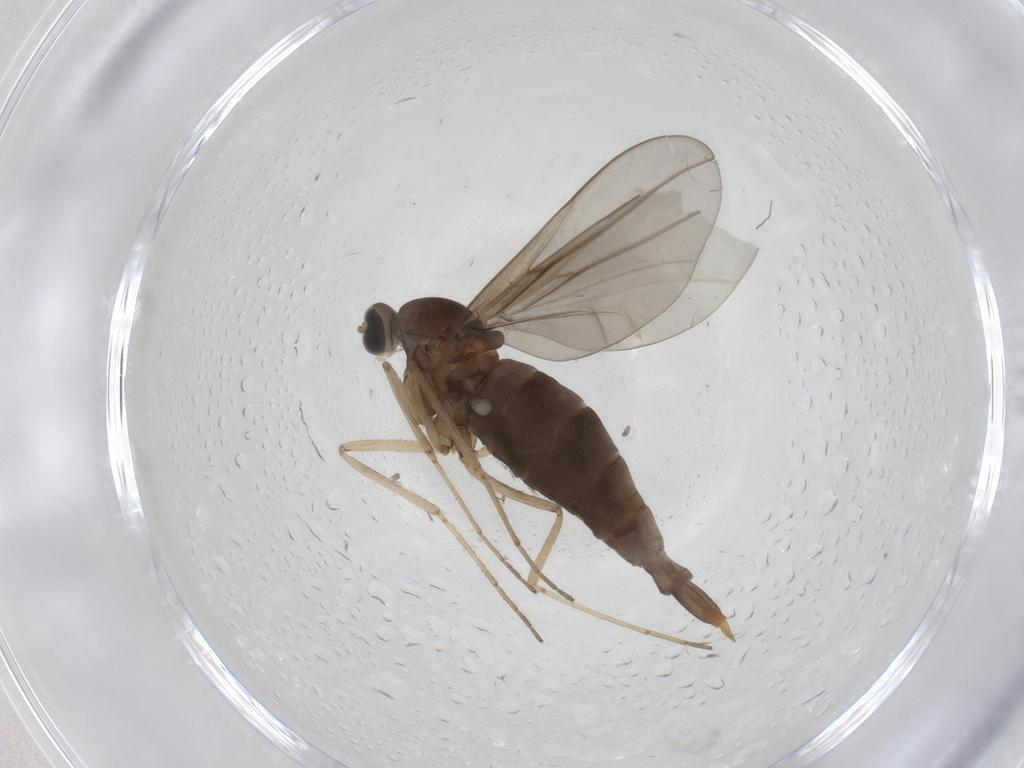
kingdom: Animalia
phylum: Arthropoda
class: Insecta
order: Diptera
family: Cecidomyiidae
